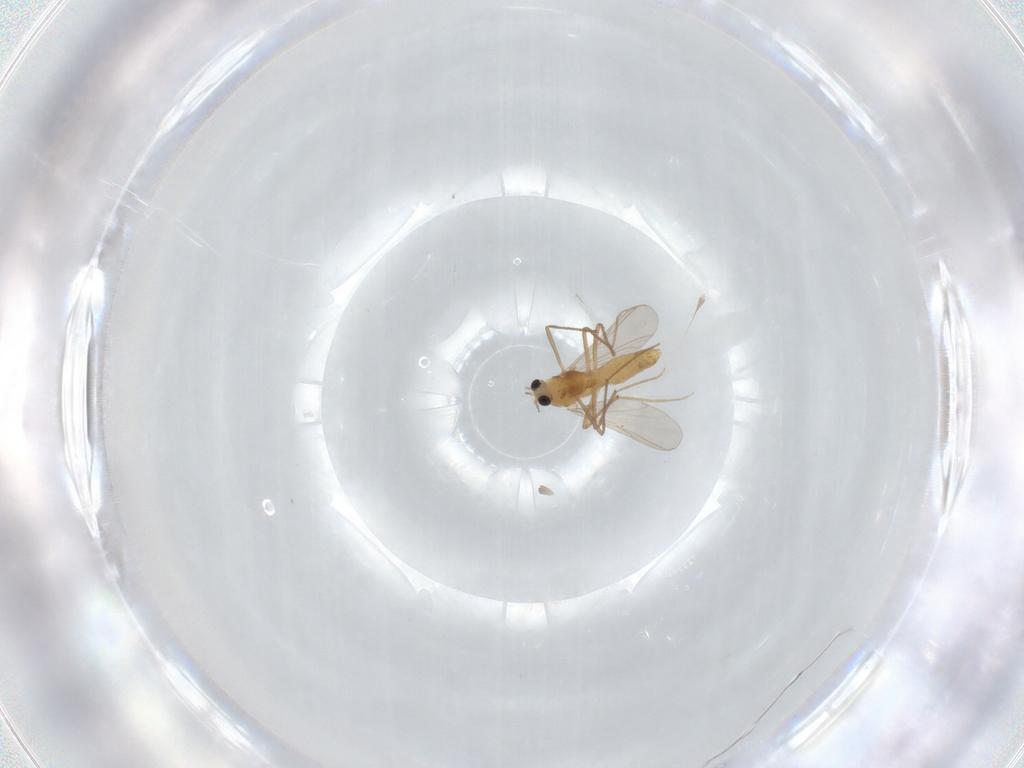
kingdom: Animalia
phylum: Arthropoda
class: Insecta
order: Diptera
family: Chironomidae
